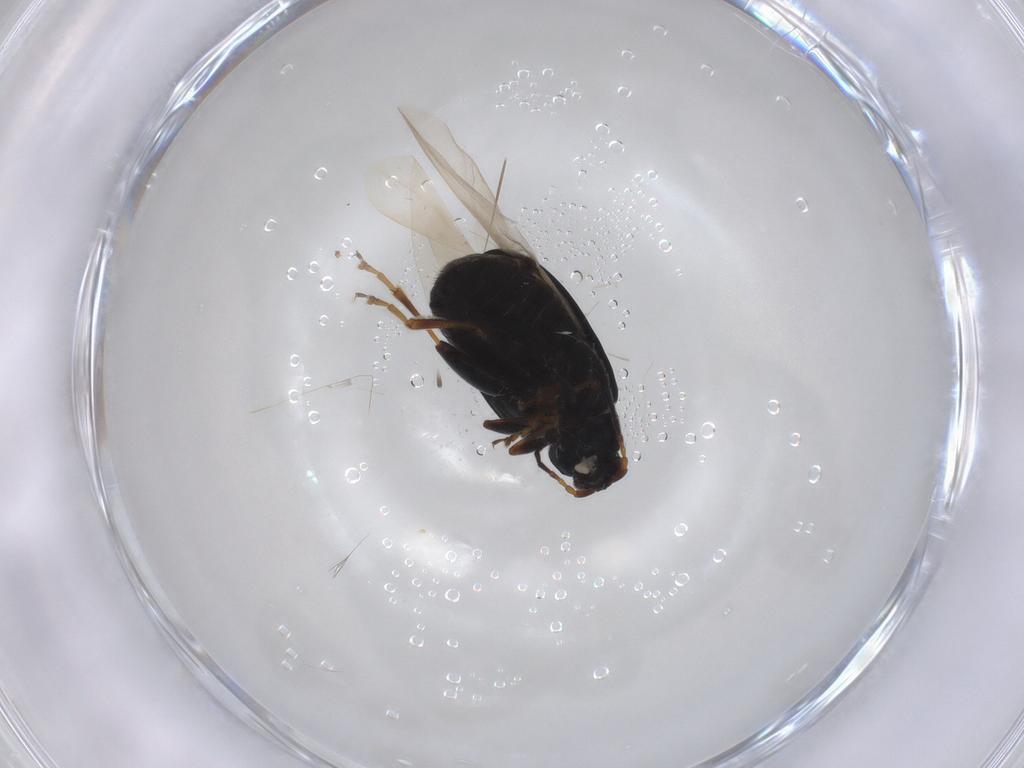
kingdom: Animalia
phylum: Arthropoda
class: Insecta
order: Coleoptera
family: Chrysomelidae
